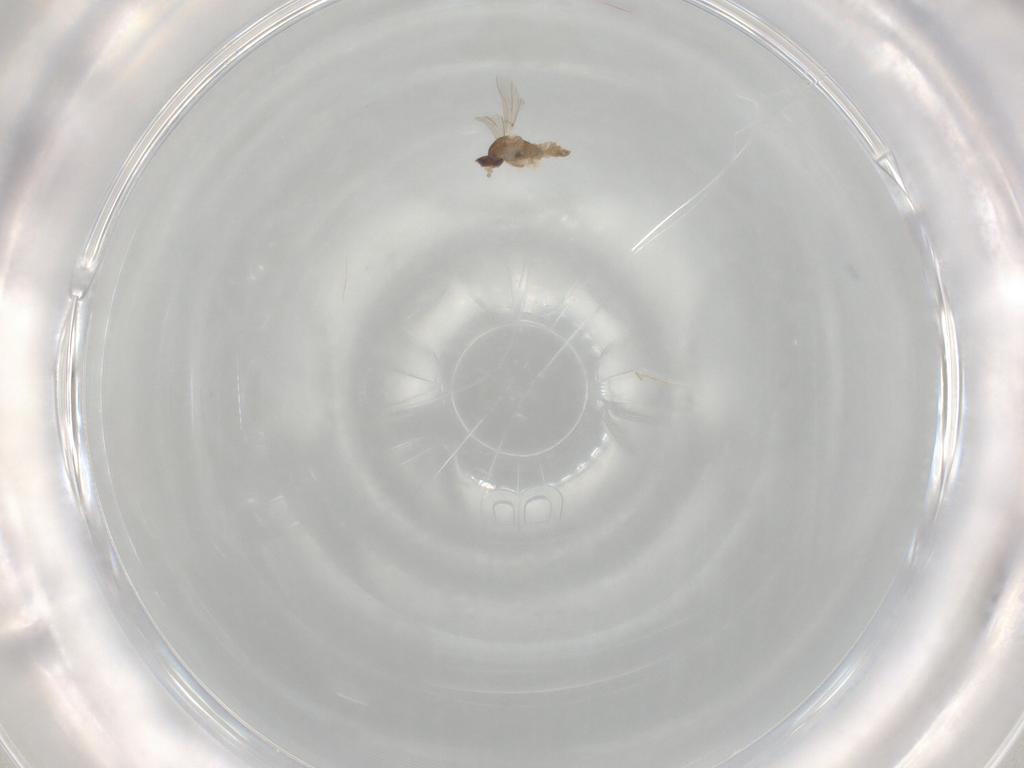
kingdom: Animalia
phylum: Arthropoda
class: Insecta
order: Diptera
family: Cecidomyiidae
